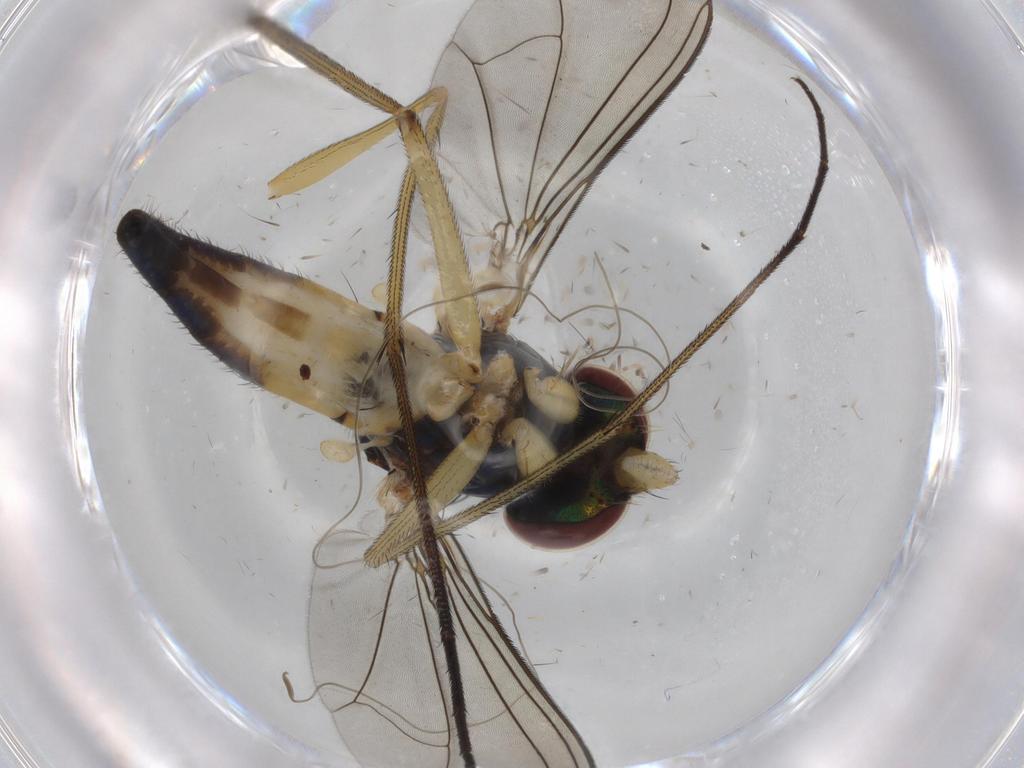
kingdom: Animalia
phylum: Arthropoda
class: Insecta
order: Diptera
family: Dolichopodidae
